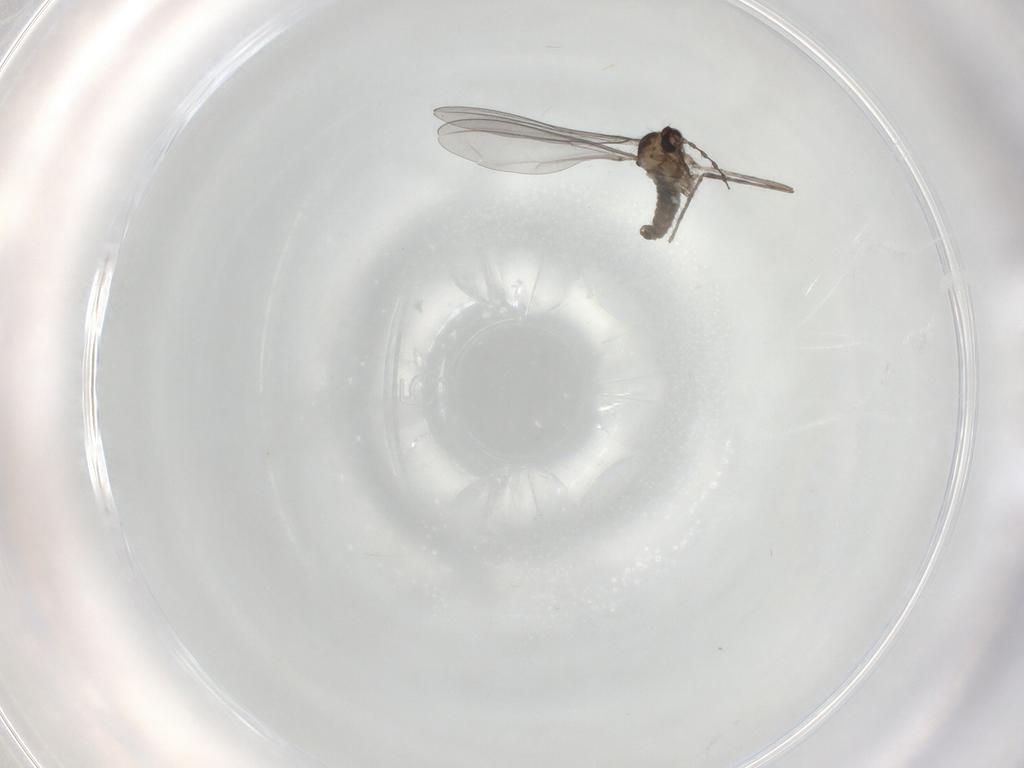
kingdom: Animalia
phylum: Arthropoda
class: Insecta
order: Diptera
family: Cecidomyiidae
